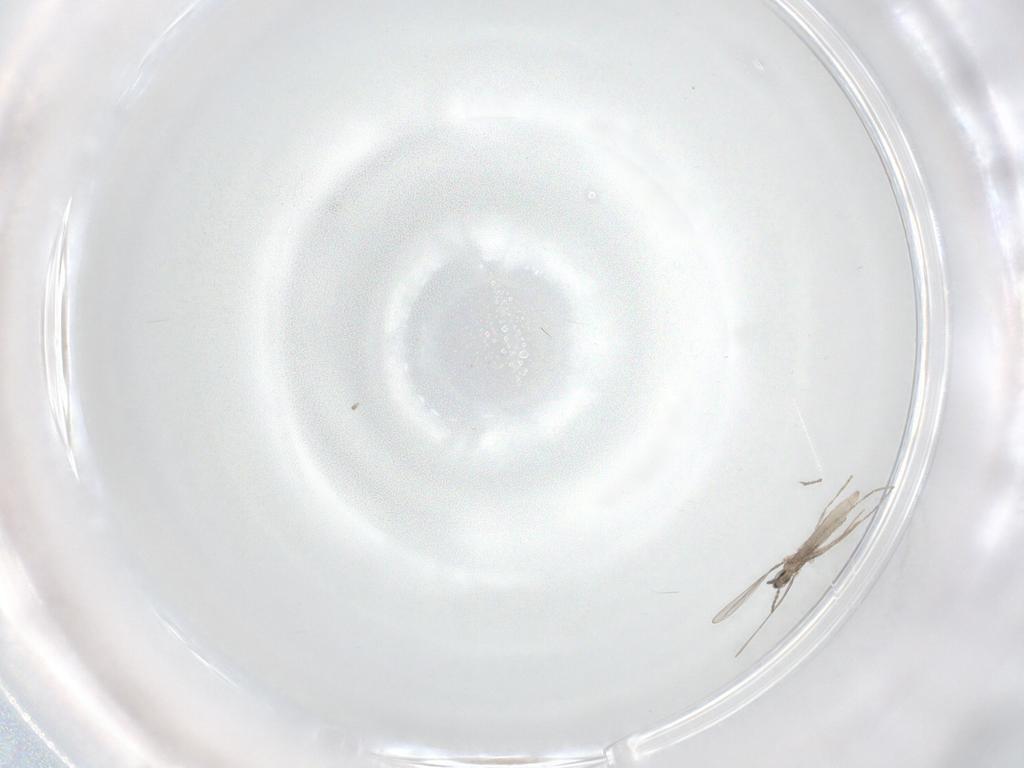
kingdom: Animalia
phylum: Arthropoda
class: Insecta
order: Diptera
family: Cecidomyiidae
